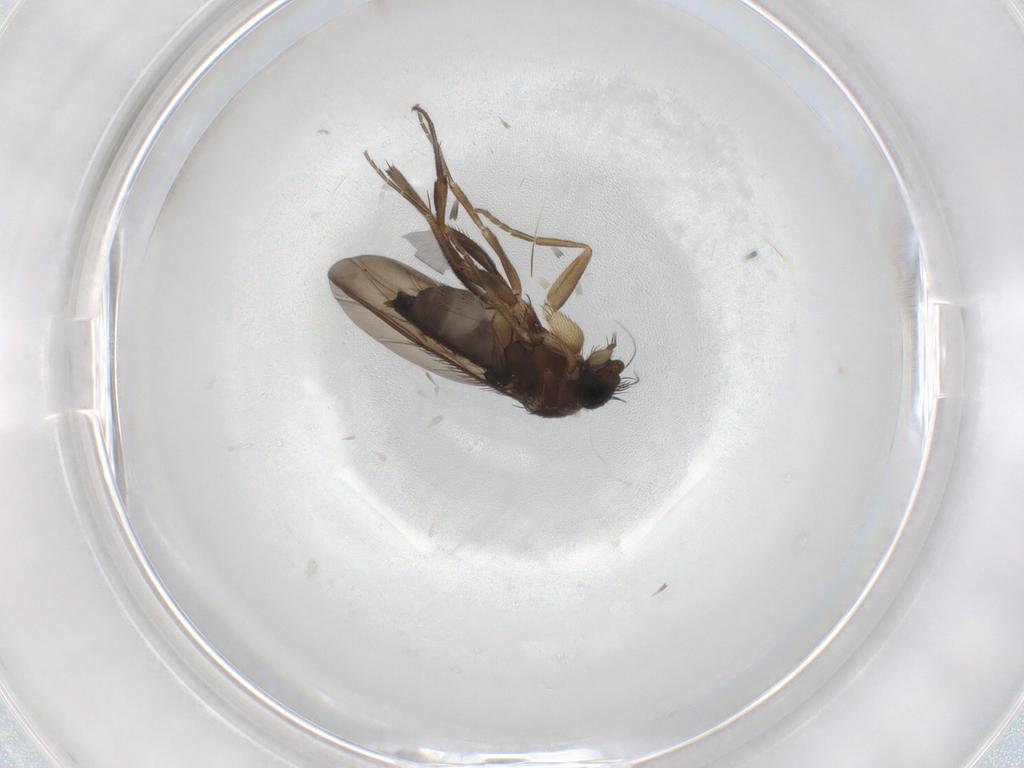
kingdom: Animalia
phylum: Arthropoda
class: Insecta
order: Diptera
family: Phoridae
